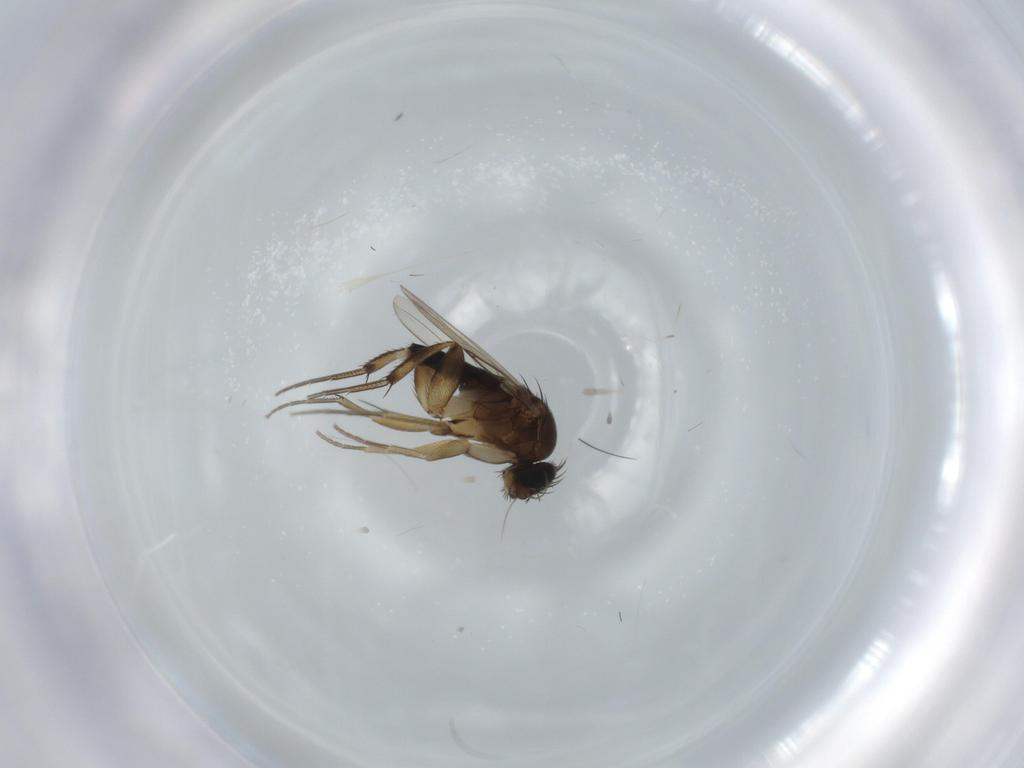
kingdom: Animalia
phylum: Arthropoda
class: Insecta
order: Diptera
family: Phoridae
